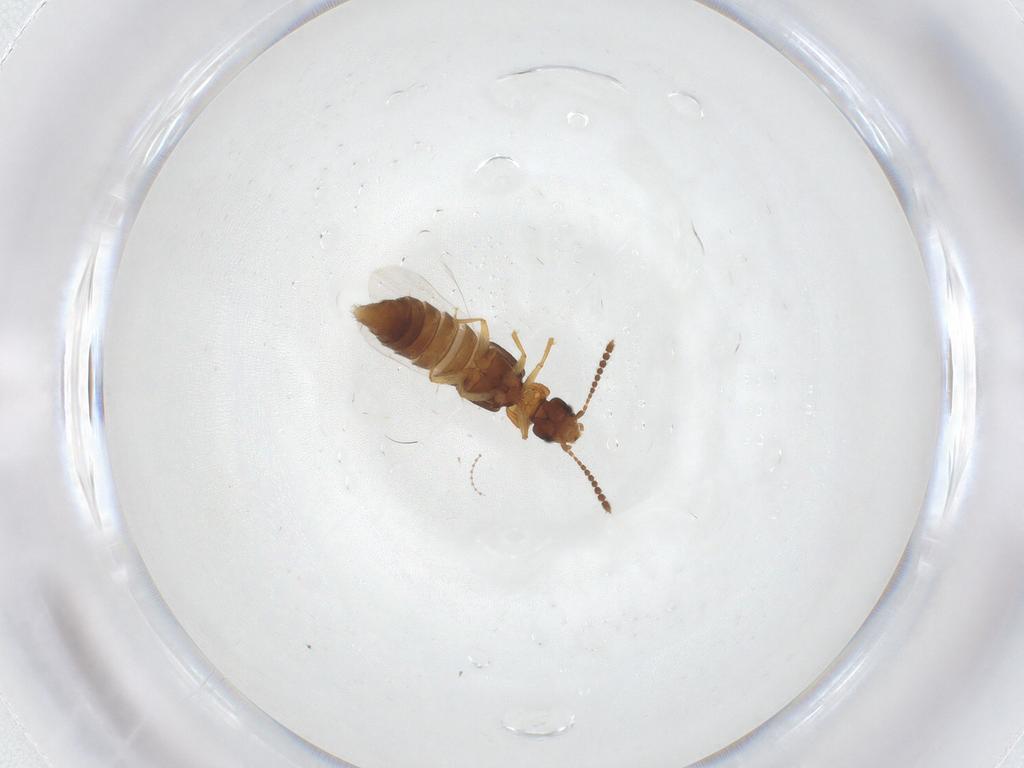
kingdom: Animalia
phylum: Arthropoda
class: Insecta
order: Coleoptera
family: Staphylinidae
